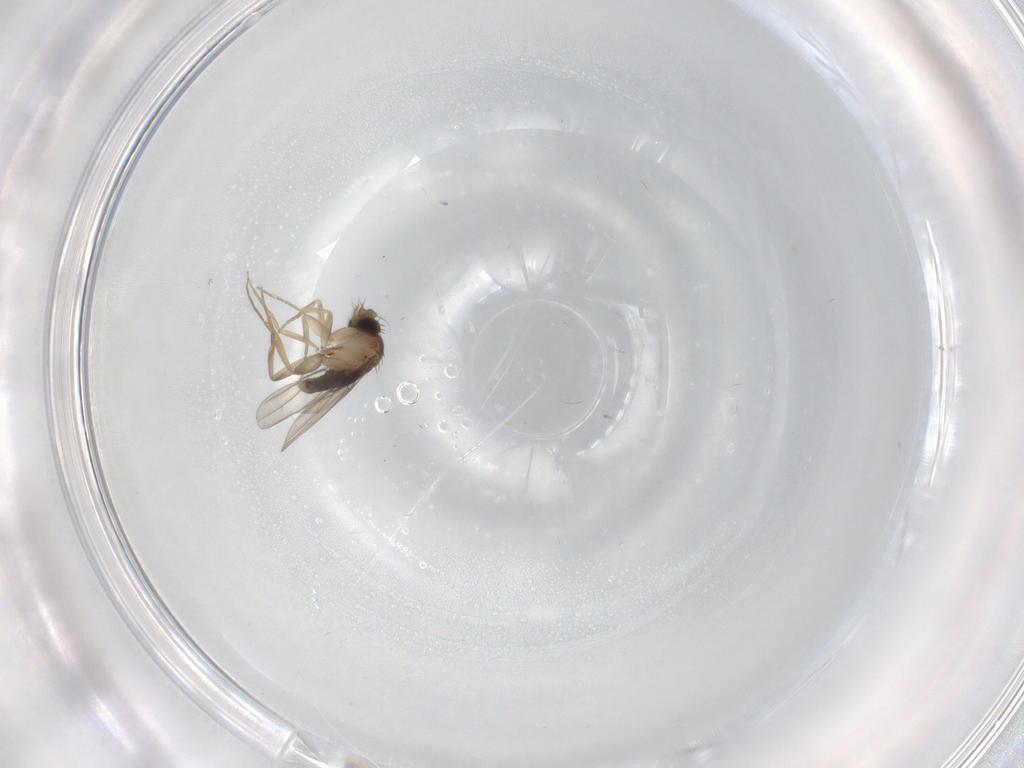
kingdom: Animalia
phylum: Arthropoda
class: Insecta
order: Diptera
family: Phoridae
